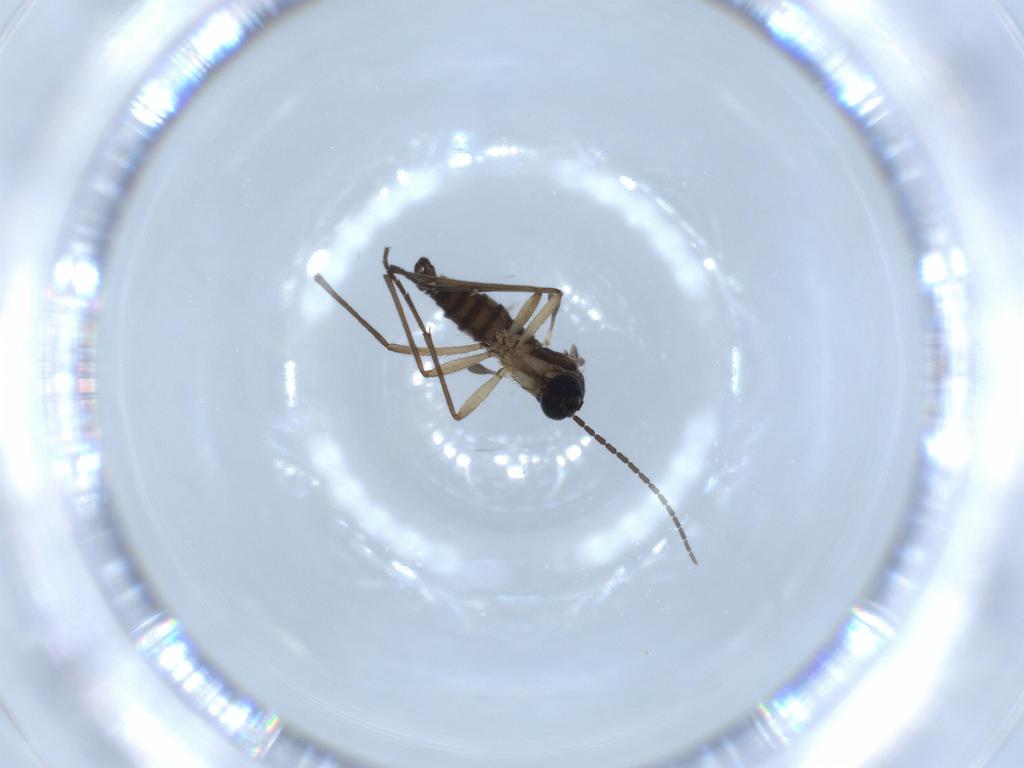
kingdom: Animalia
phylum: Arthropoda
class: Insecta
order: Diptera
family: Sciaridae
